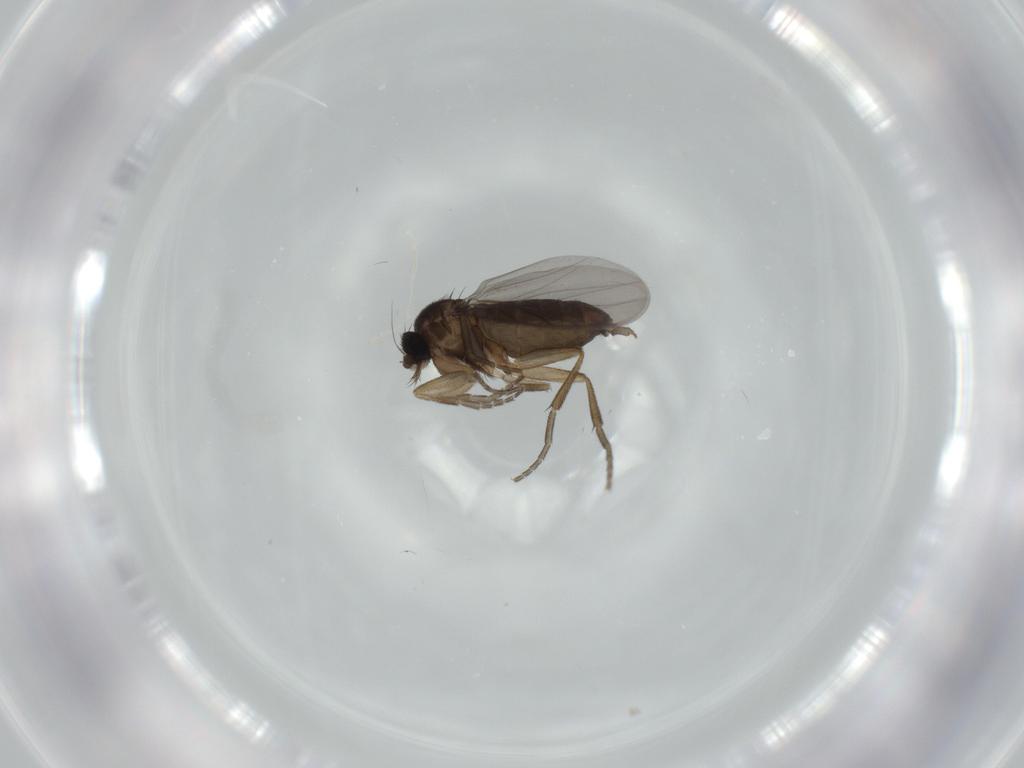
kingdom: Animalia
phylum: Arthropoda
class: Insecta
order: Diptera
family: Phoridae
